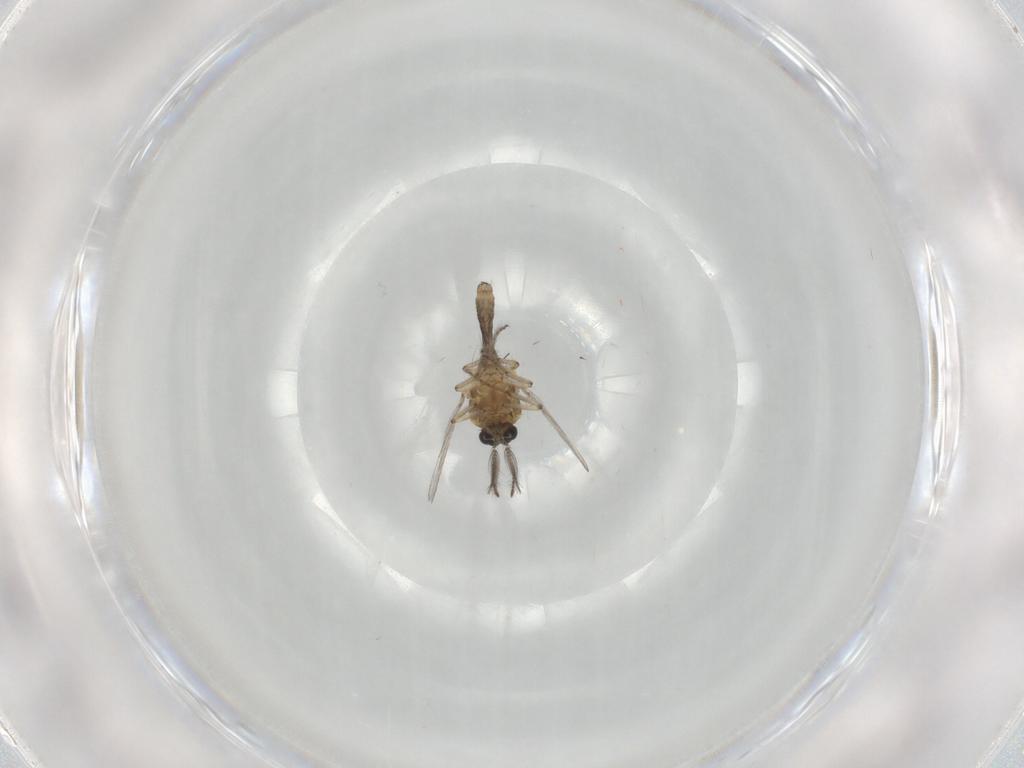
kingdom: Animalia
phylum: Arthropoda
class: Insecta
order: Diptera
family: Ceratopogonidae
